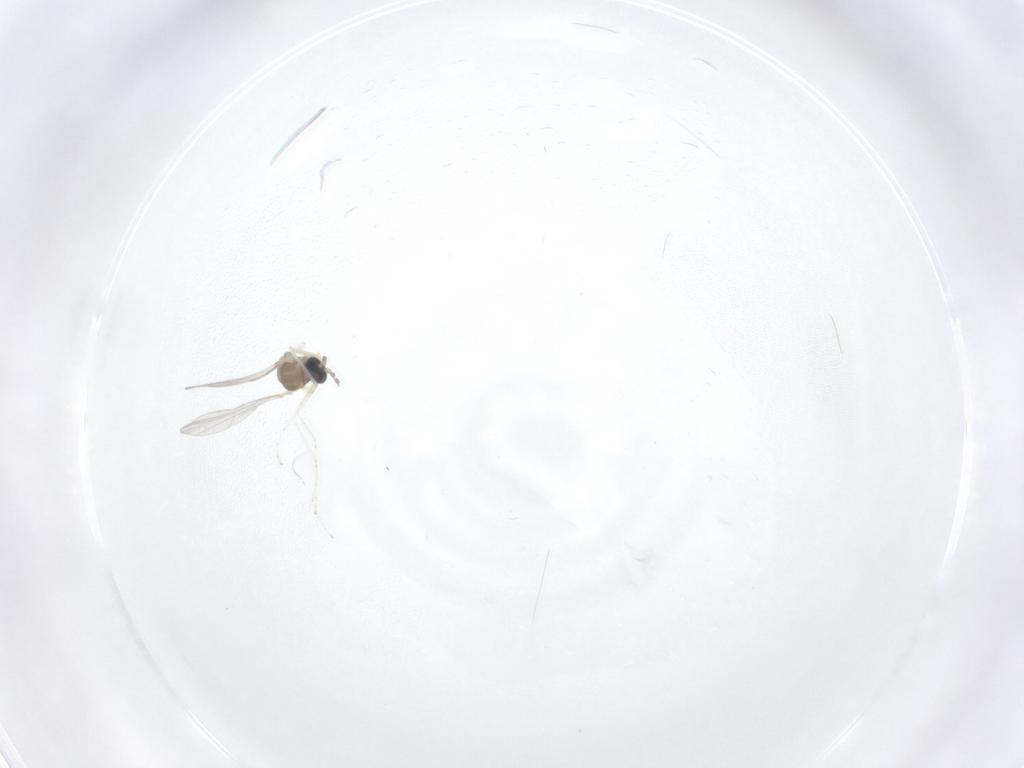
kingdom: Animalia
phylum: Arthropoda
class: Insecta
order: Diptera
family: Cecidomyiidae
